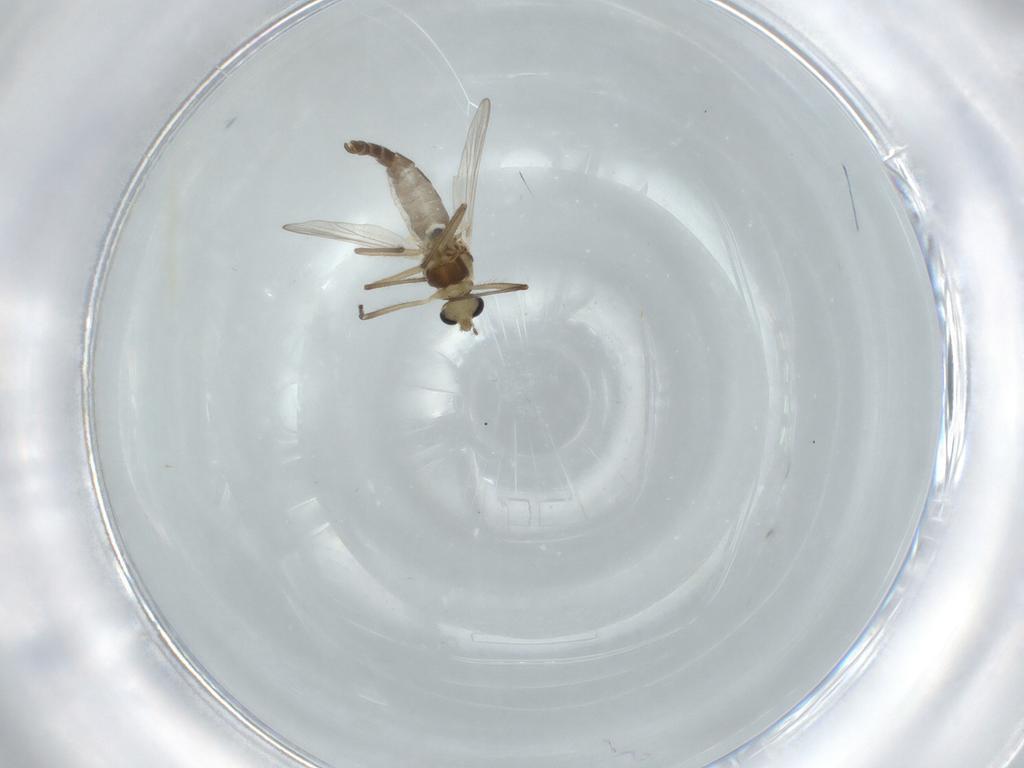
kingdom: Animalia
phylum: Arthropoda
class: Insecta
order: Diptera
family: Chironomidae
